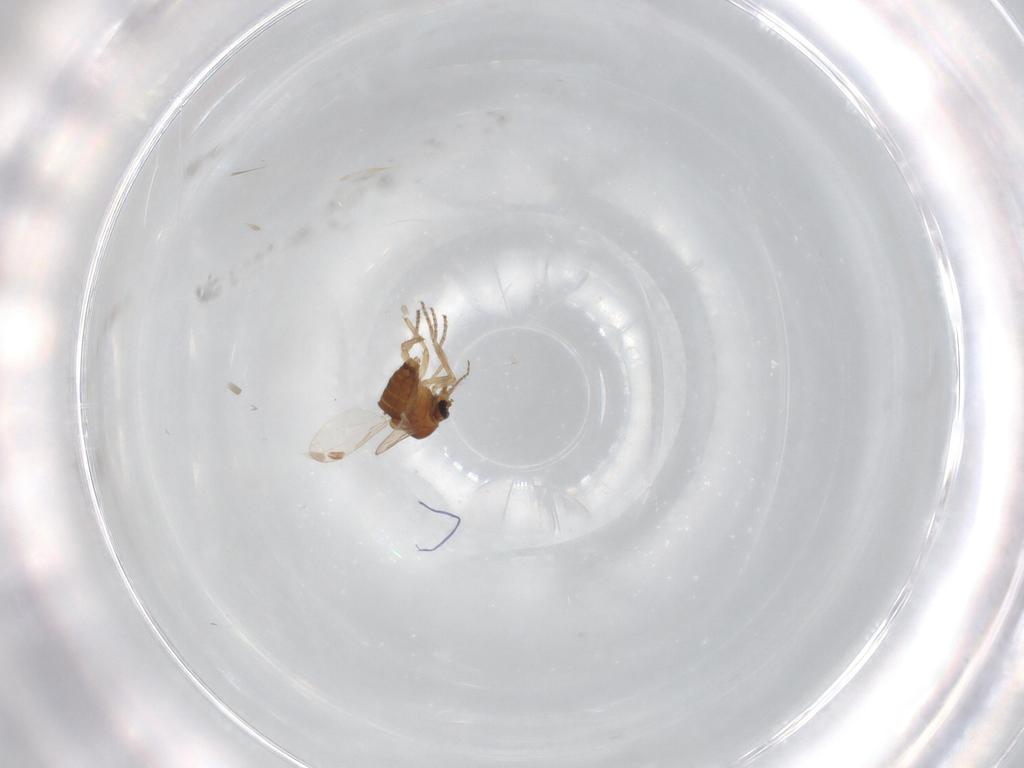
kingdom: Animalia
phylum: Arthropoda
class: Insecta
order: Diptera
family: Ceratopogonidae
